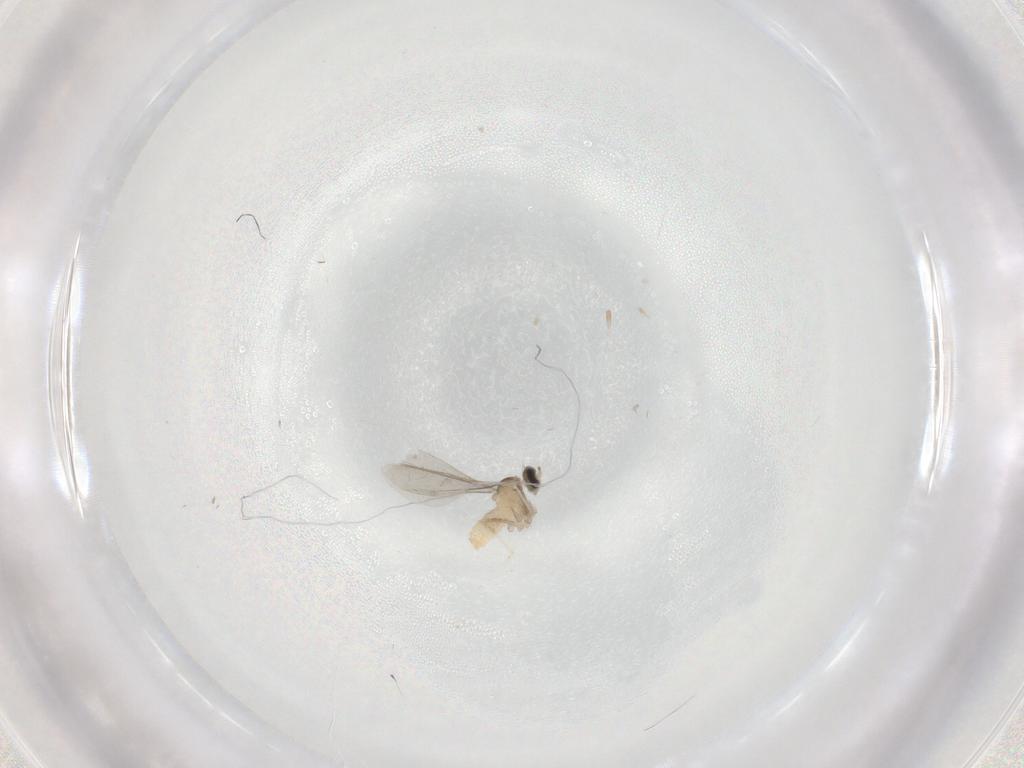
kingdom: Animalia
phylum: Arthropoda
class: Insecta
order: Diptera
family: Cecidomyiidae
